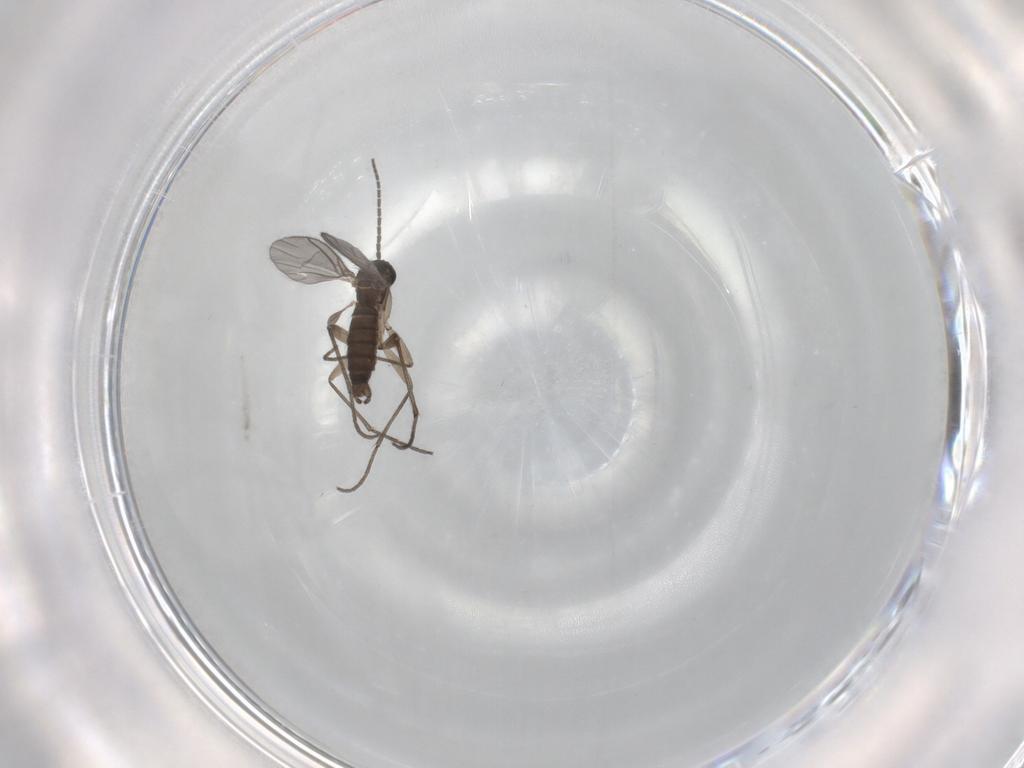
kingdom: Animalia
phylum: Arthropoda
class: Insecta
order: Diptera
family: Sciaridae
